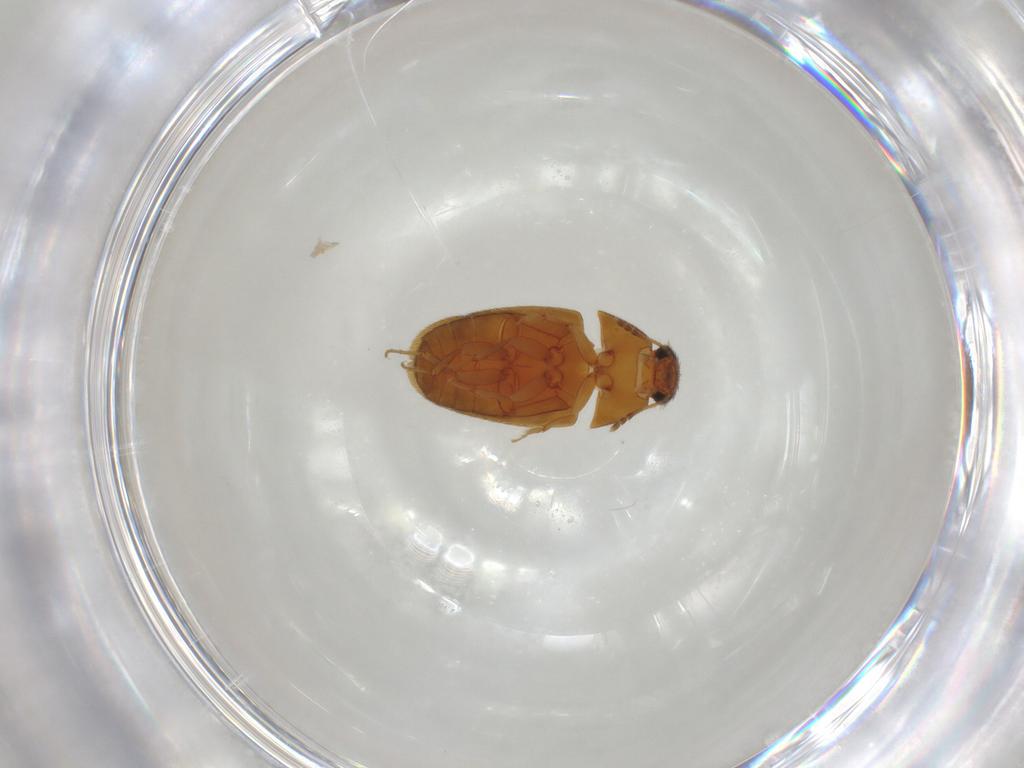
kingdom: Animalia
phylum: Arthropoda
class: Insecta
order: Coleoptera
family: Mycetophagidae
